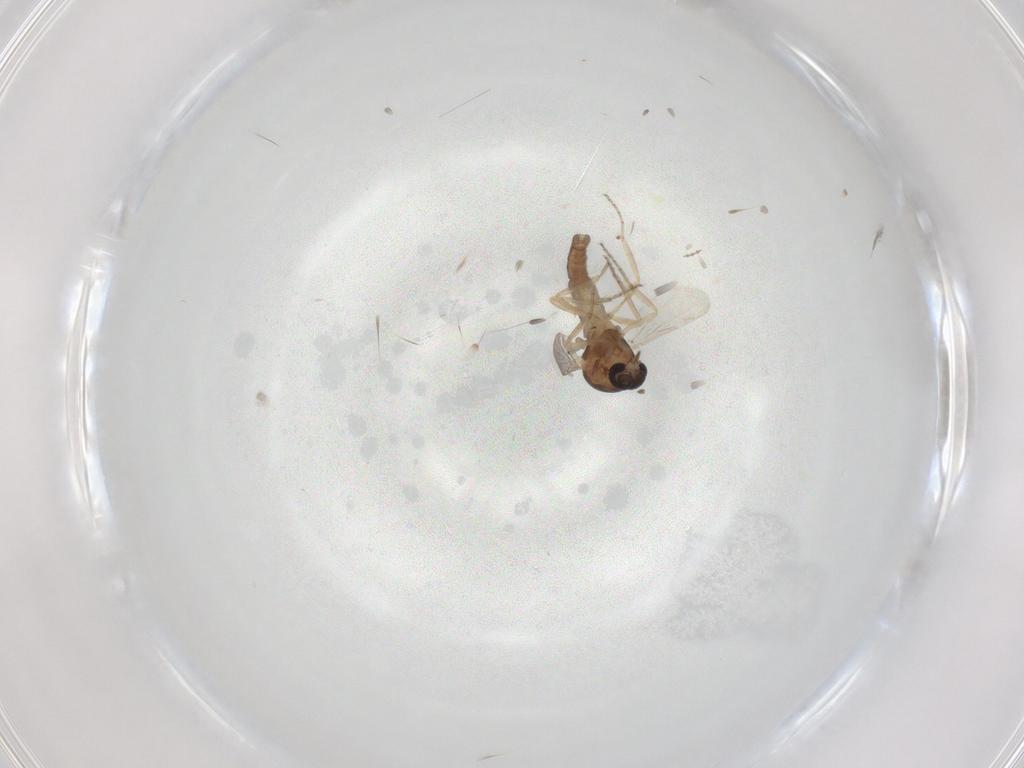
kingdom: Animalia
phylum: Arthropoda
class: Insecta
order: Diptera
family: Ceratopogonidae
